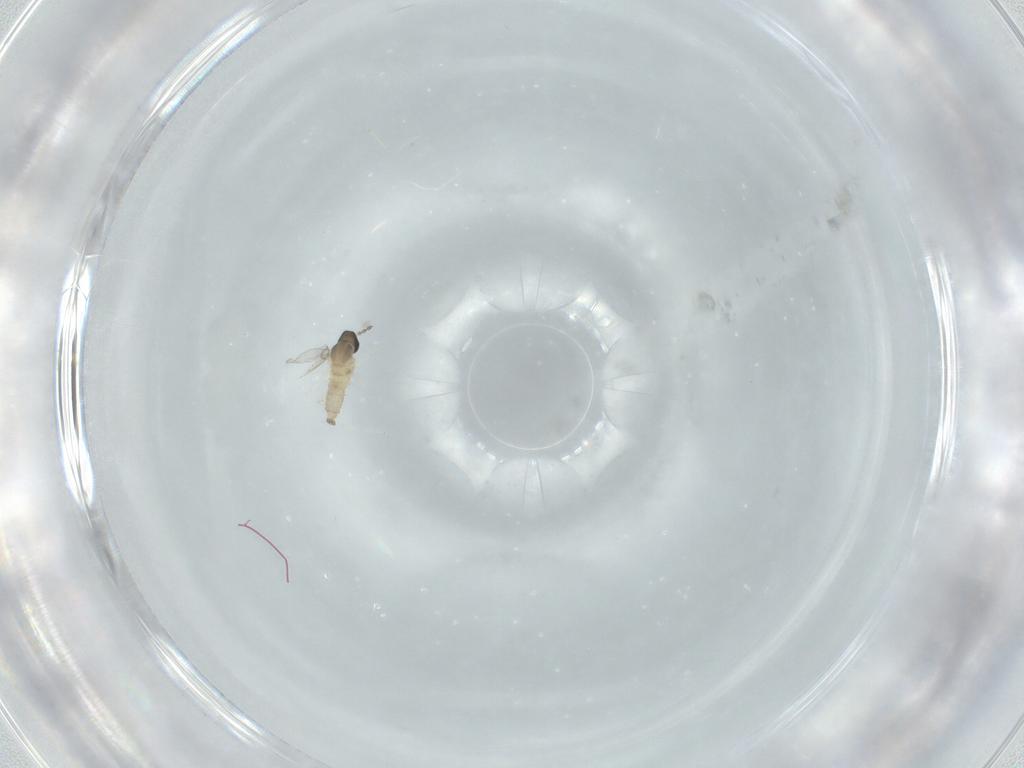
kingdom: Animalia
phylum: Arthropoda
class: Insecta
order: Diptera
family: Cecidomyiidae
